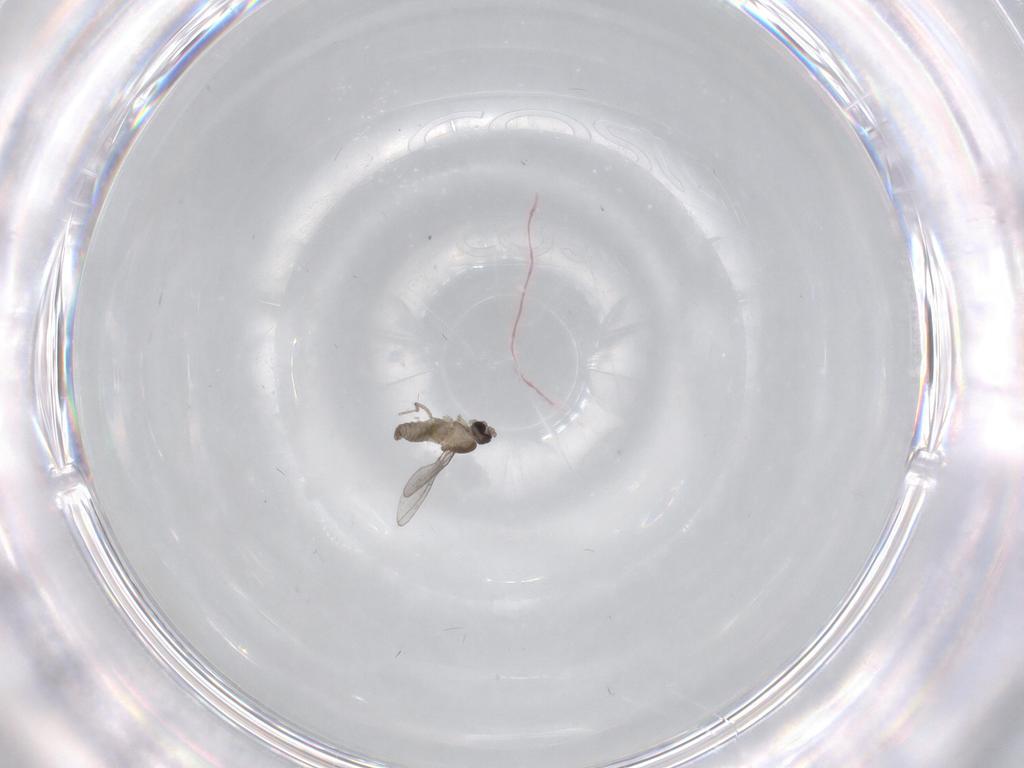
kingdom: Animalia
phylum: Arthropoda
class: Insecta
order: Diptera
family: Cecidomyiidae
